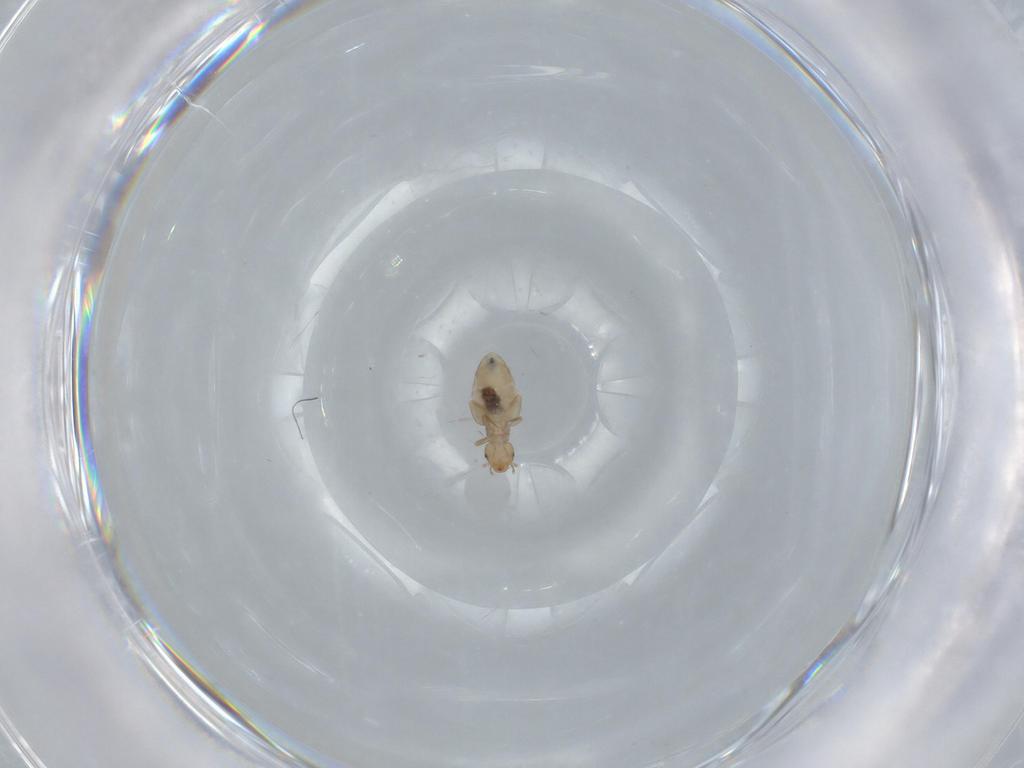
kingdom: Animalia
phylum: Arthropoda
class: Insecta
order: Psocodea
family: Liposcelididae
